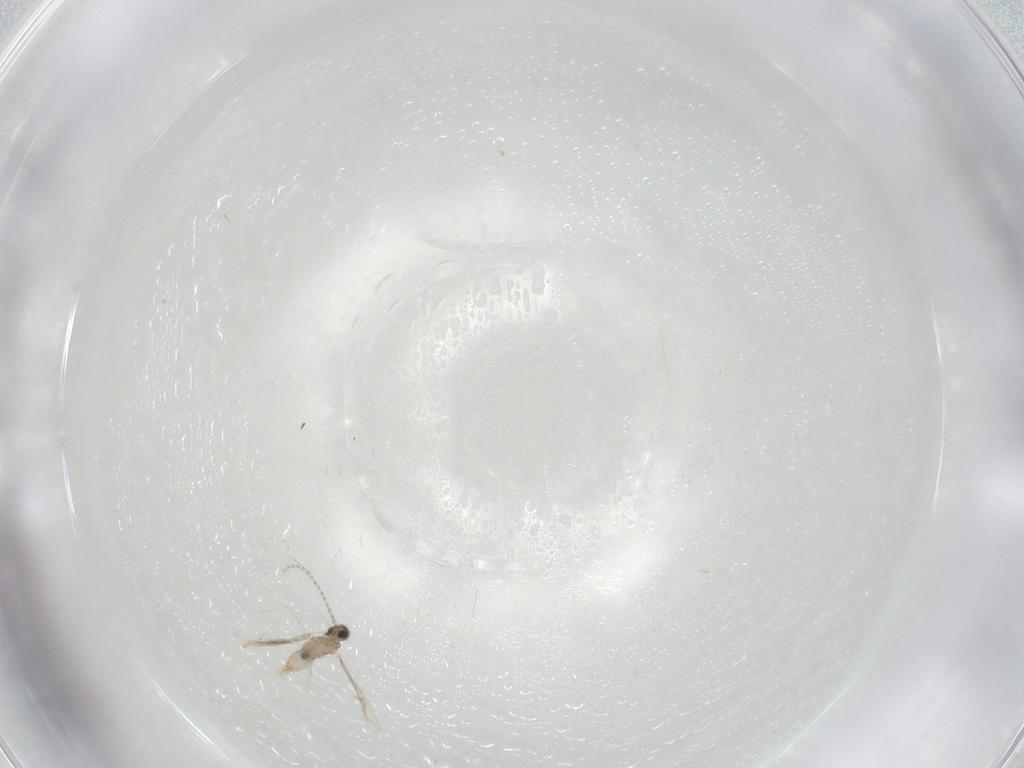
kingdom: Animalia
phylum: Arthropoda
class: Insecta
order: Diptera
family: Cecidomyiidae
